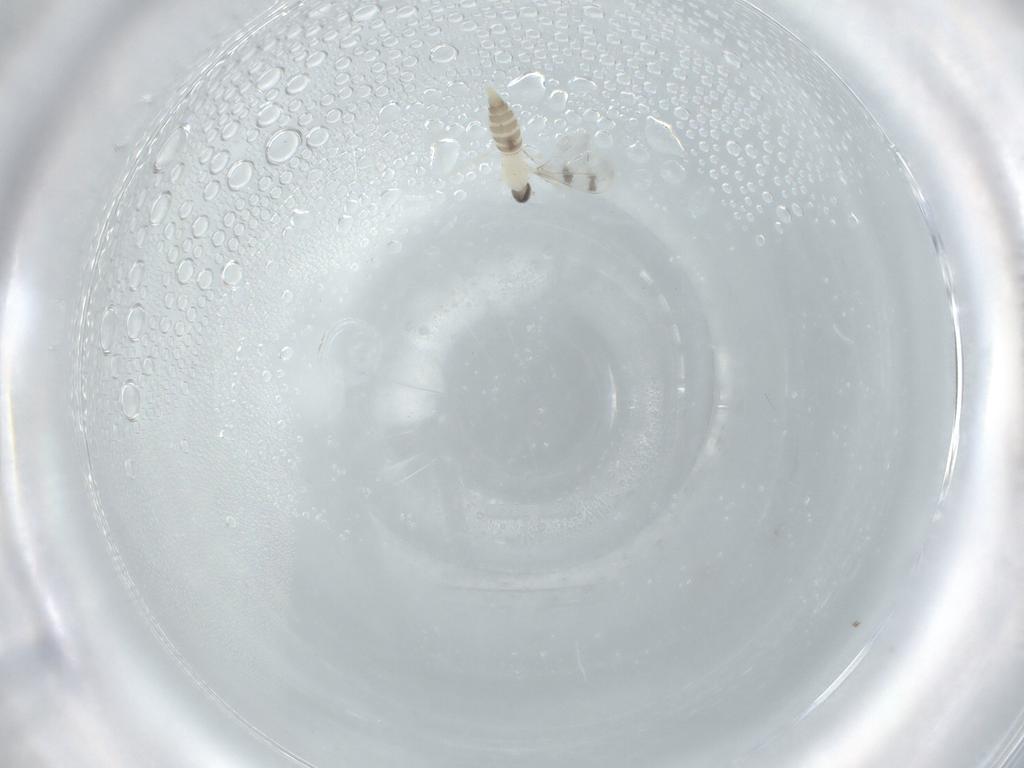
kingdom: Animalia
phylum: Arthropoda
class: Insecta
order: Diptera
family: Cecidomyiidae
